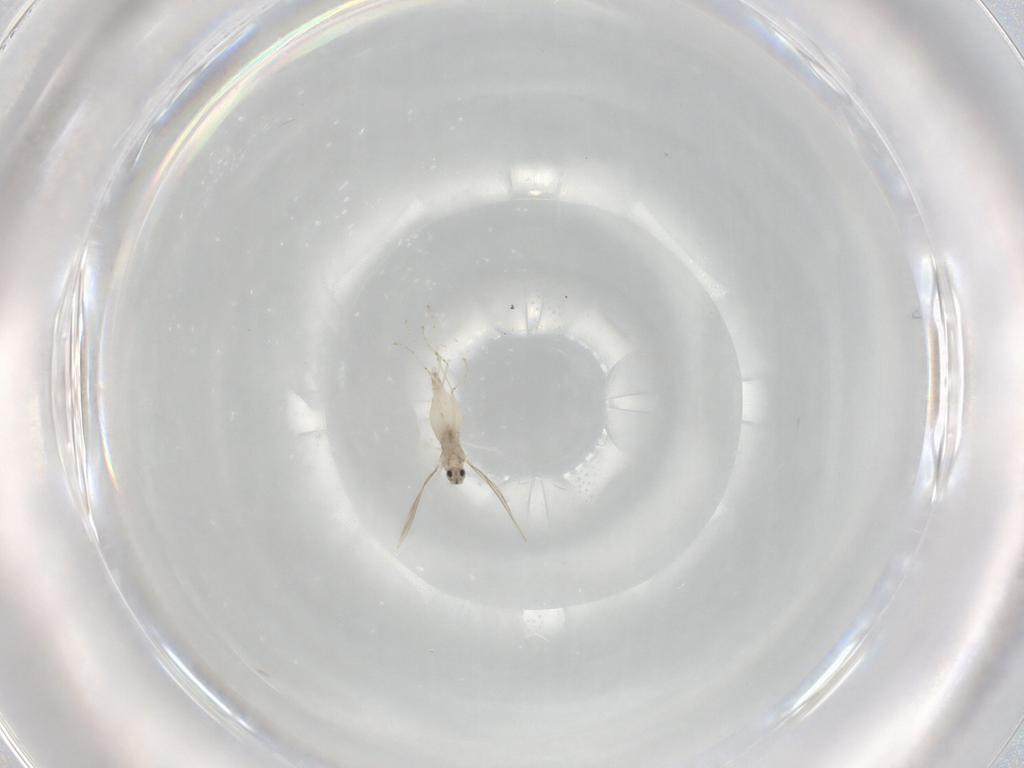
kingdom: Animalia
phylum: Arthropoda
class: Insecta
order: Diptera
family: Cecidomyiidae
